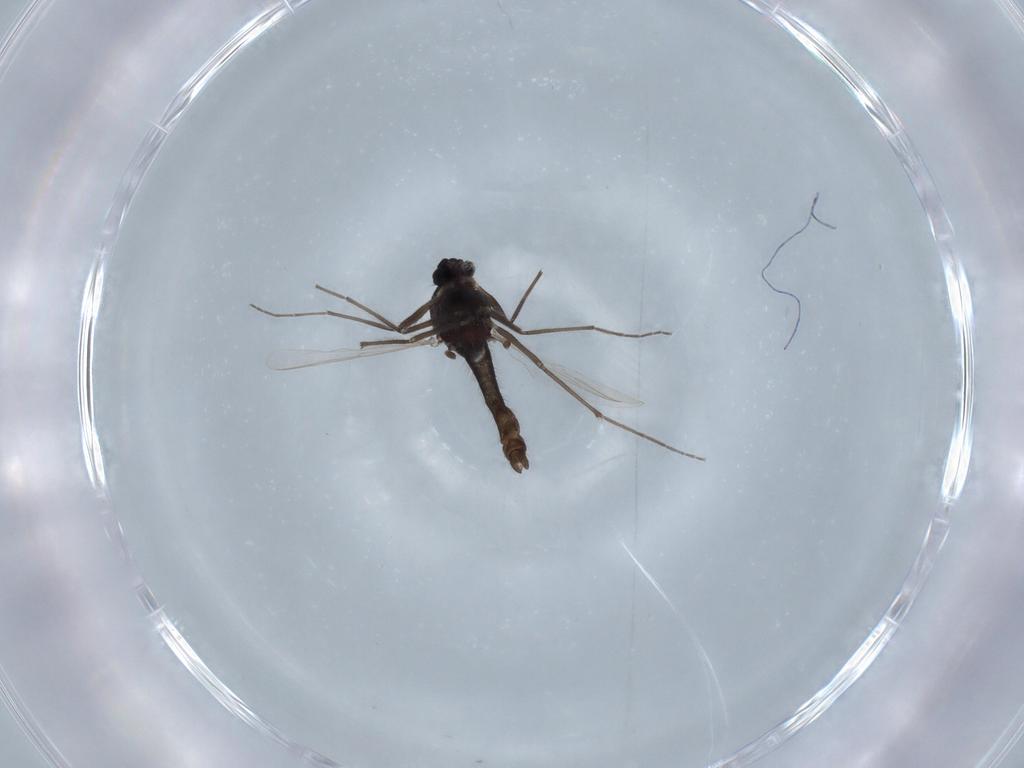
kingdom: Animalia
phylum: Arthropoda
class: Insecta
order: Diptera
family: Chironomidae
